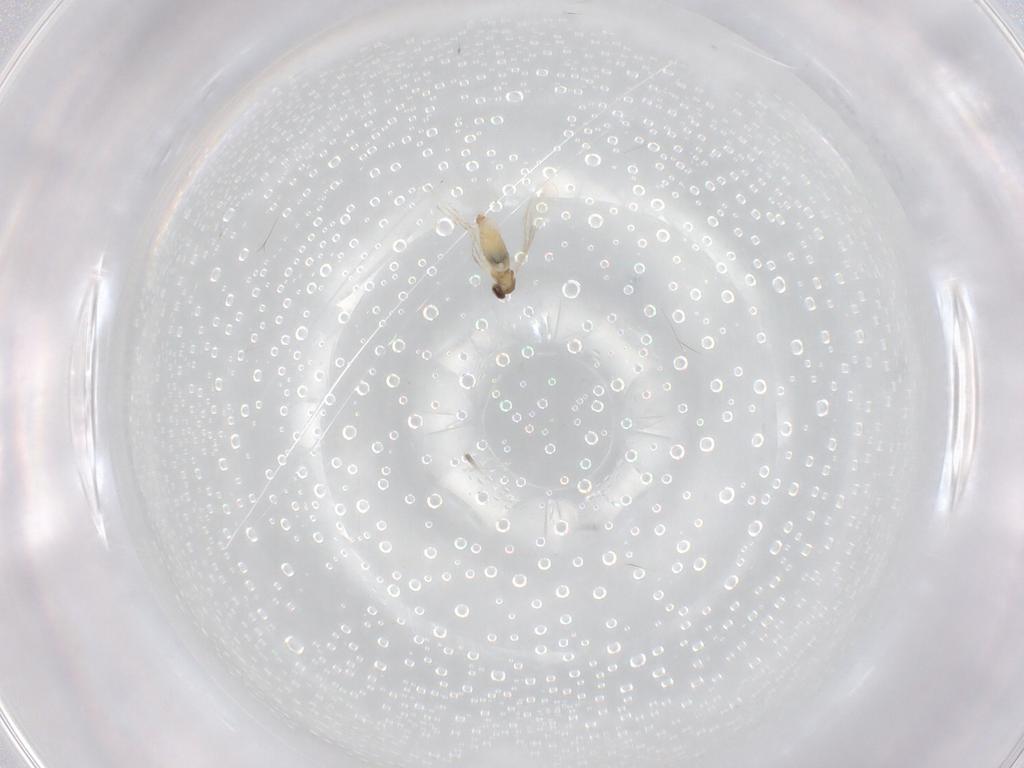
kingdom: Animalia
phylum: Arthropoda
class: Insecta
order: Diptera
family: Cecidomyiidae
